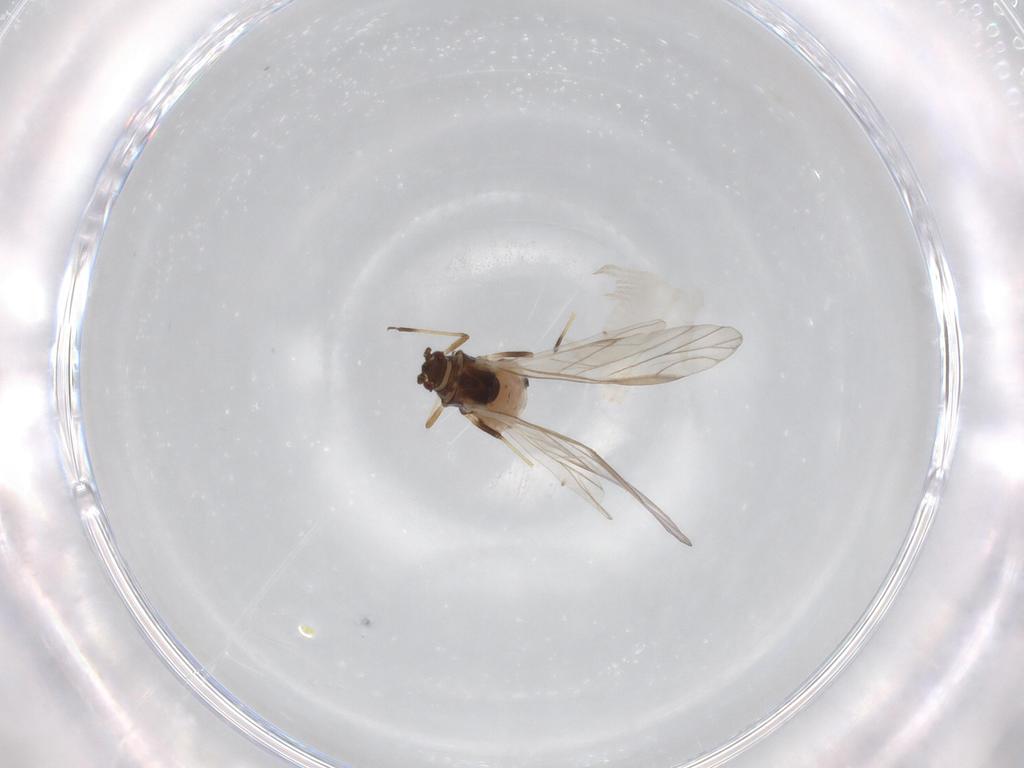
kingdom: Animalia
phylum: Arthropoda
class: Insecta
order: Hemiptera
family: Aphididae
